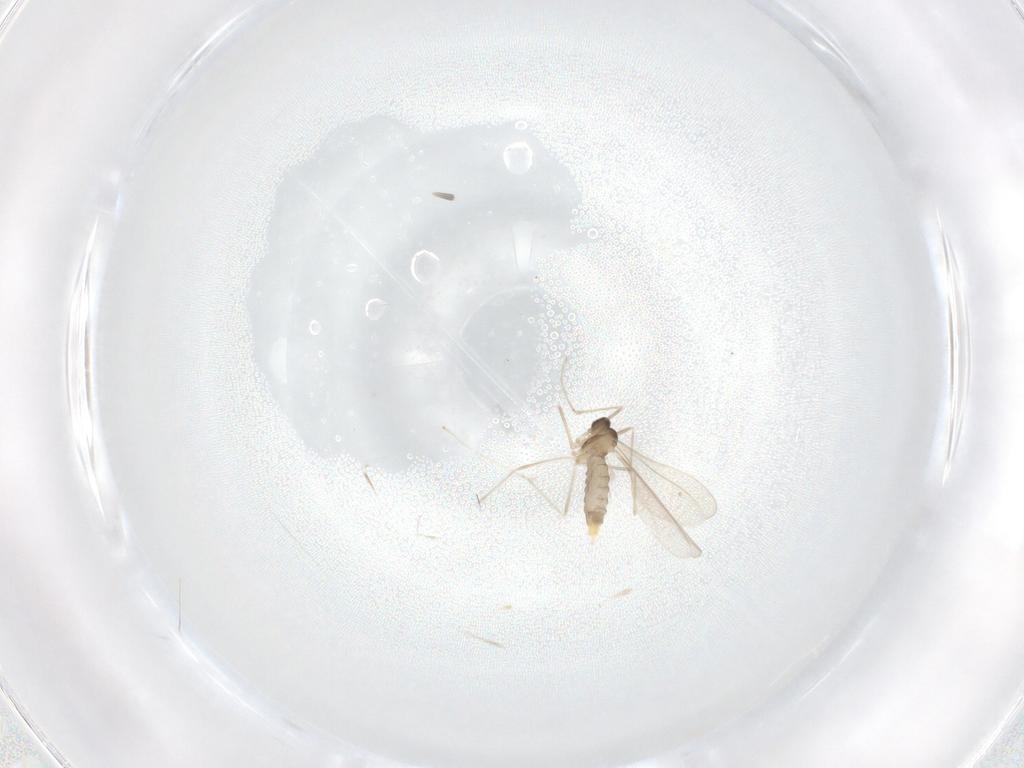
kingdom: Animalia
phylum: Arthropoda
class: Insecta
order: Diptera
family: Cecidomyiidae
